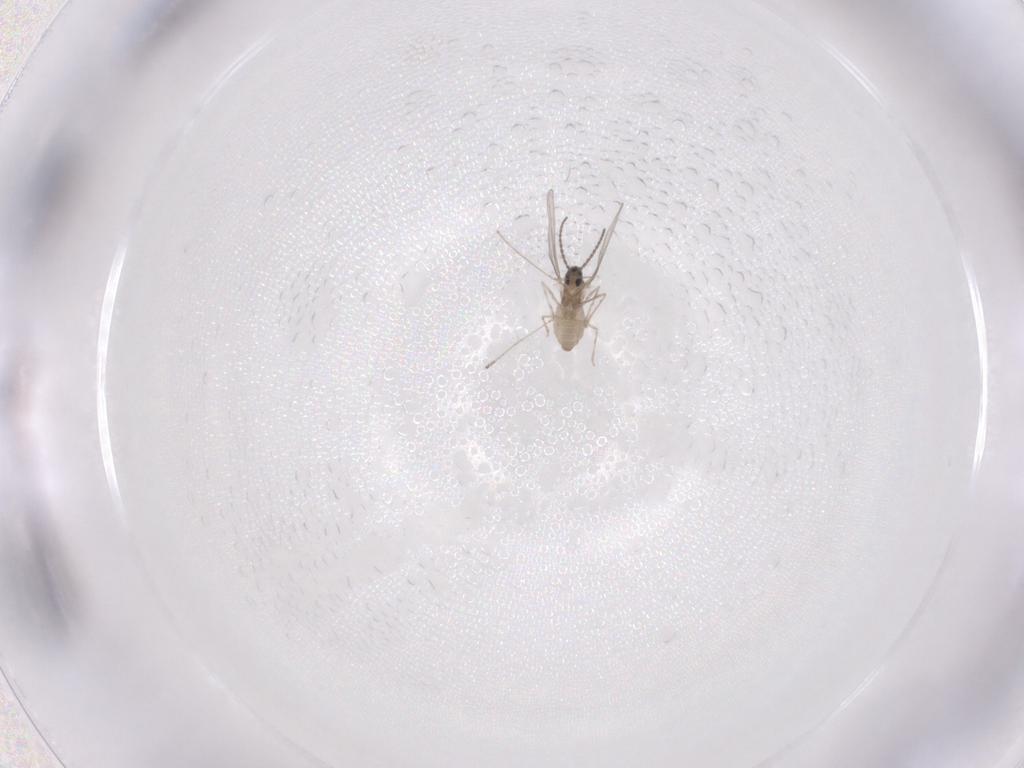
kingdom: Animalia
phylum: Arthropoda
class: Insecta
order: Diptera
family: Cecidomyiidae
